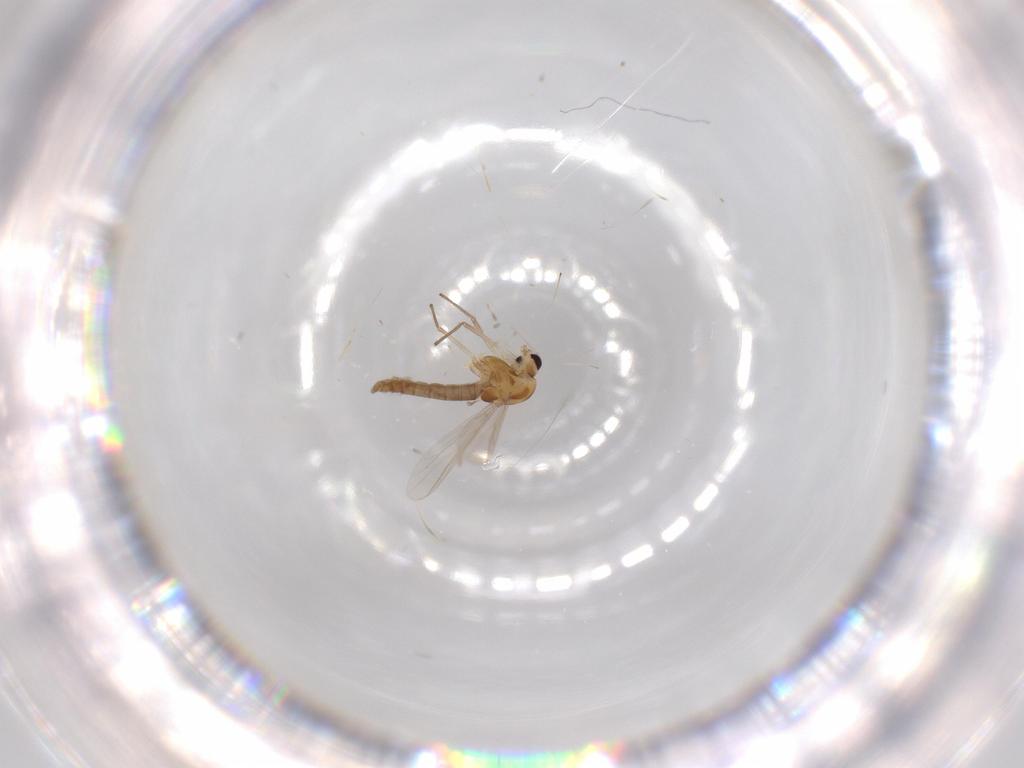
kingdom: Animalia
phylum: Arthropoda
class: Insecta
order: Diptera
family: Chironomidae
